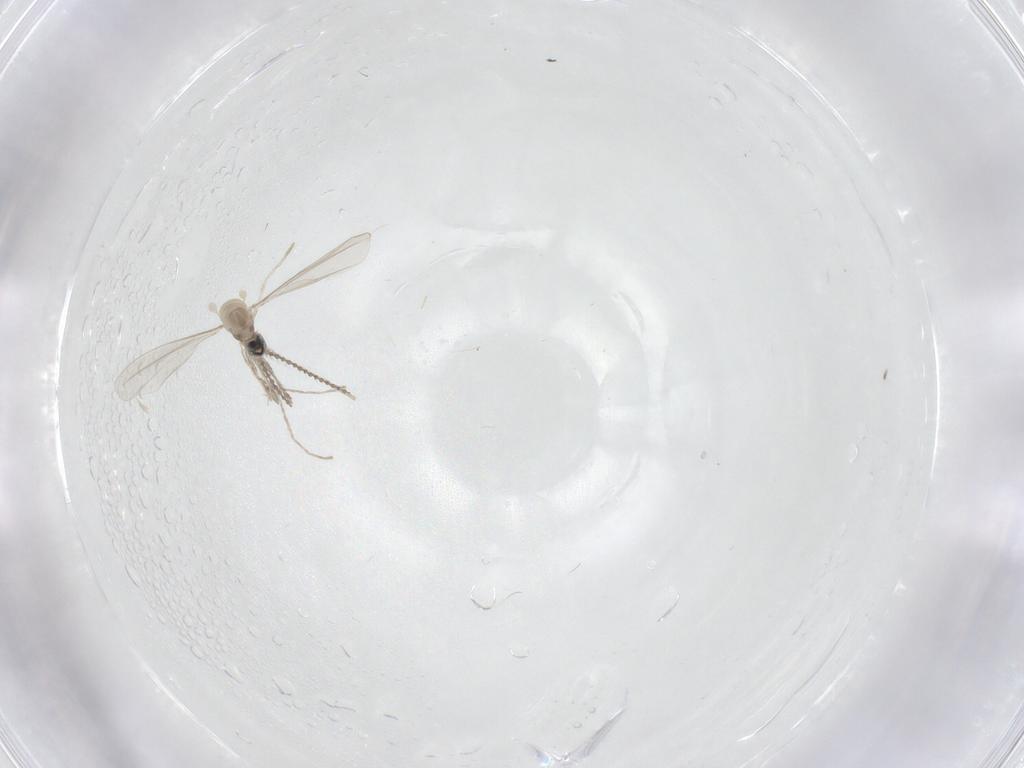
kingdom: Animalia
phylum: Arthropoda
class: Insecta
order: Diptera
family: Cecidomyiidae
